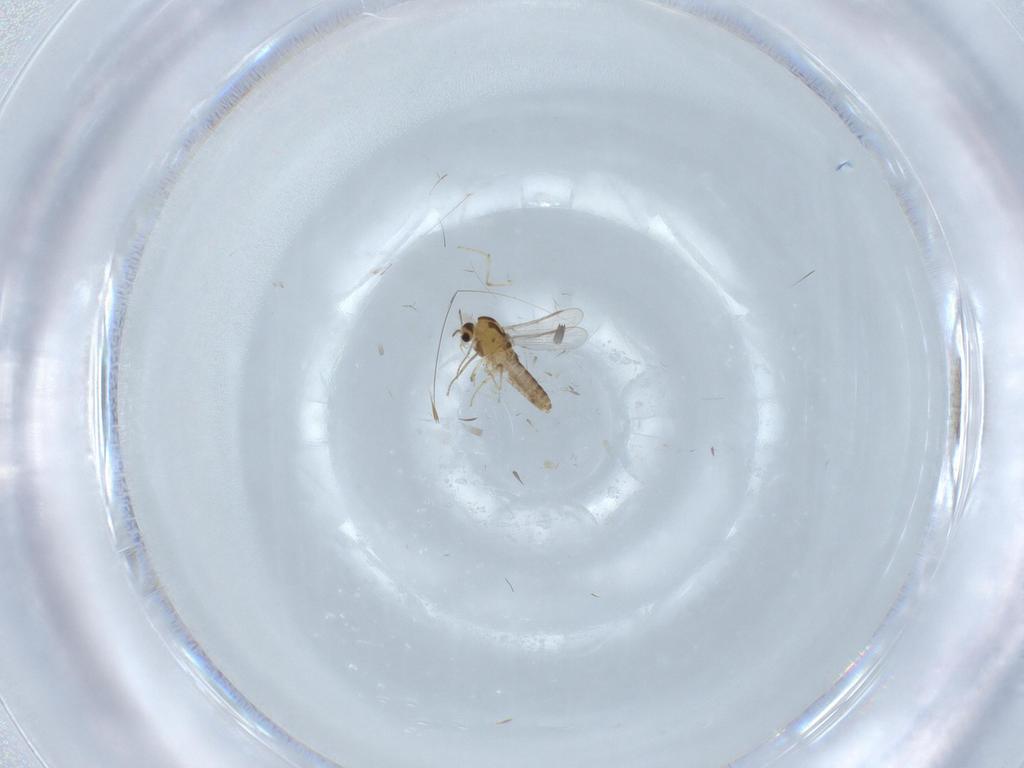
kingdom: Animalia
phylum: Arthropoda
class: Insecta
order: Diptera
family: Chironomidae
